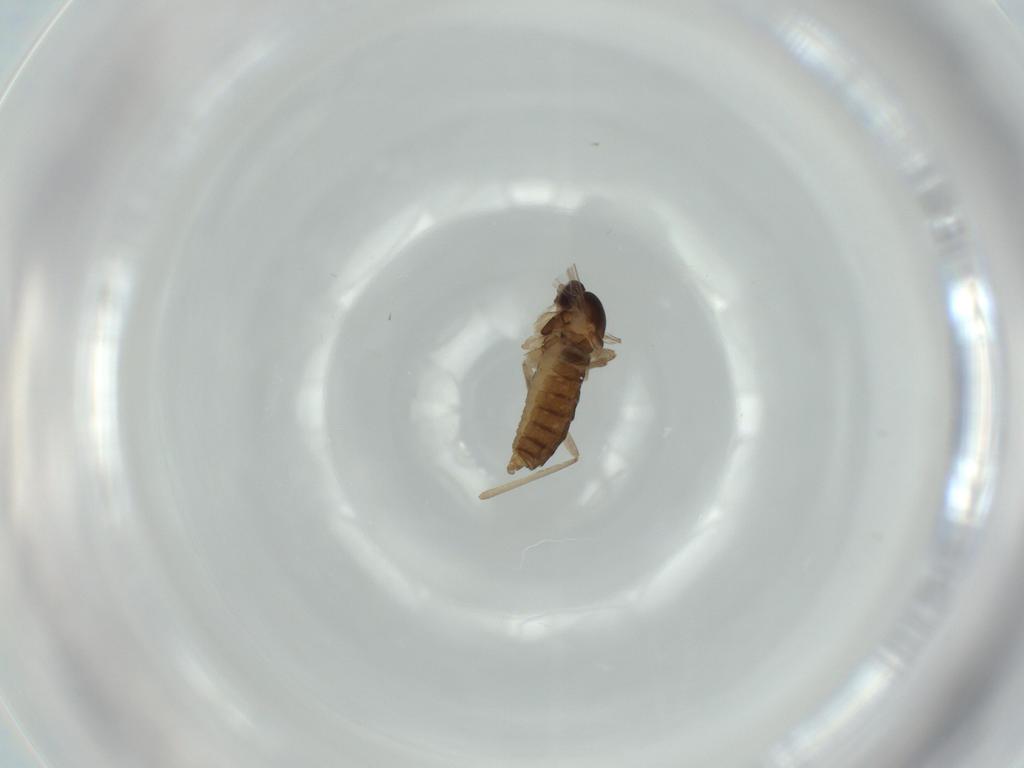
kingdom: Animalia
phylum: Arthropoda
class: Insecta
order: Diptera
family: Cecidomyiidae
